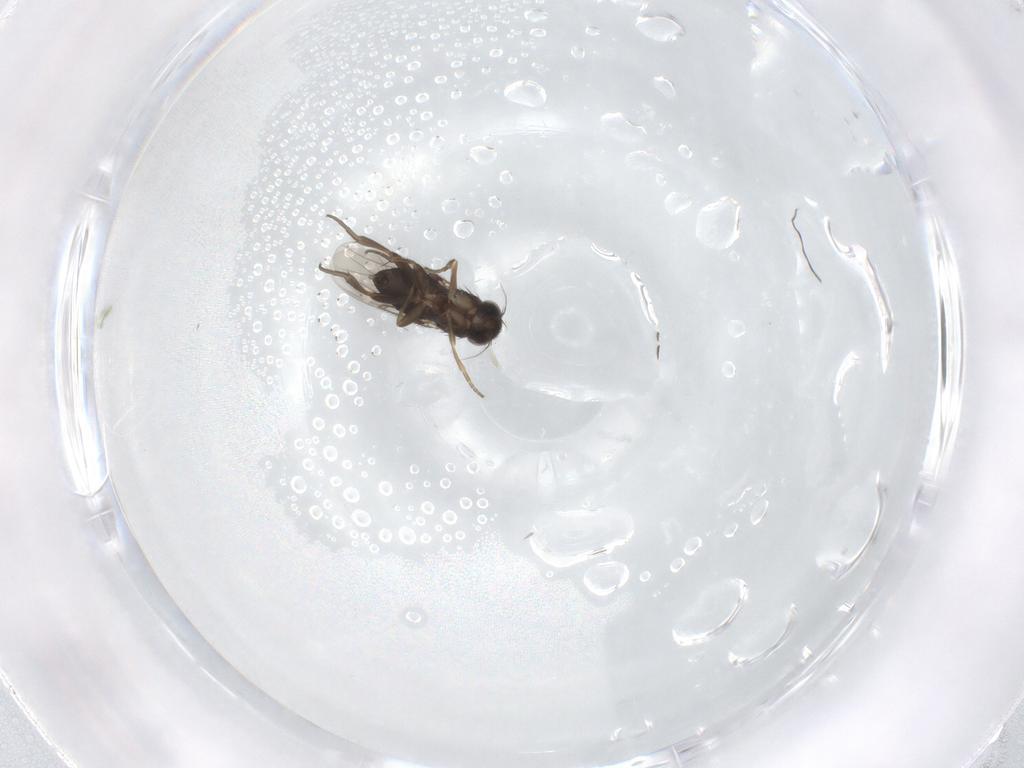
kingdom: Animalia
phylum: Arthropoda
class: Insecta
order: Diptera
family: Phoridae
